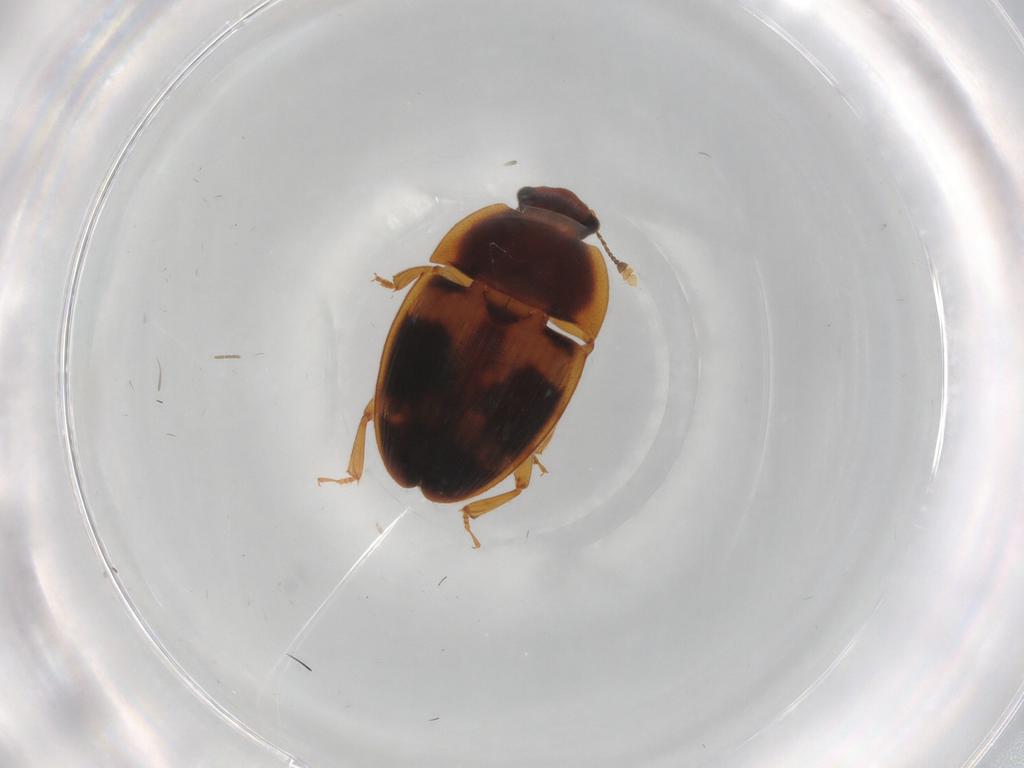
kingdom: Animalia
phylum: Arthropoda
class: Insecta
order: Coleoptera
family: Nitidulidae
